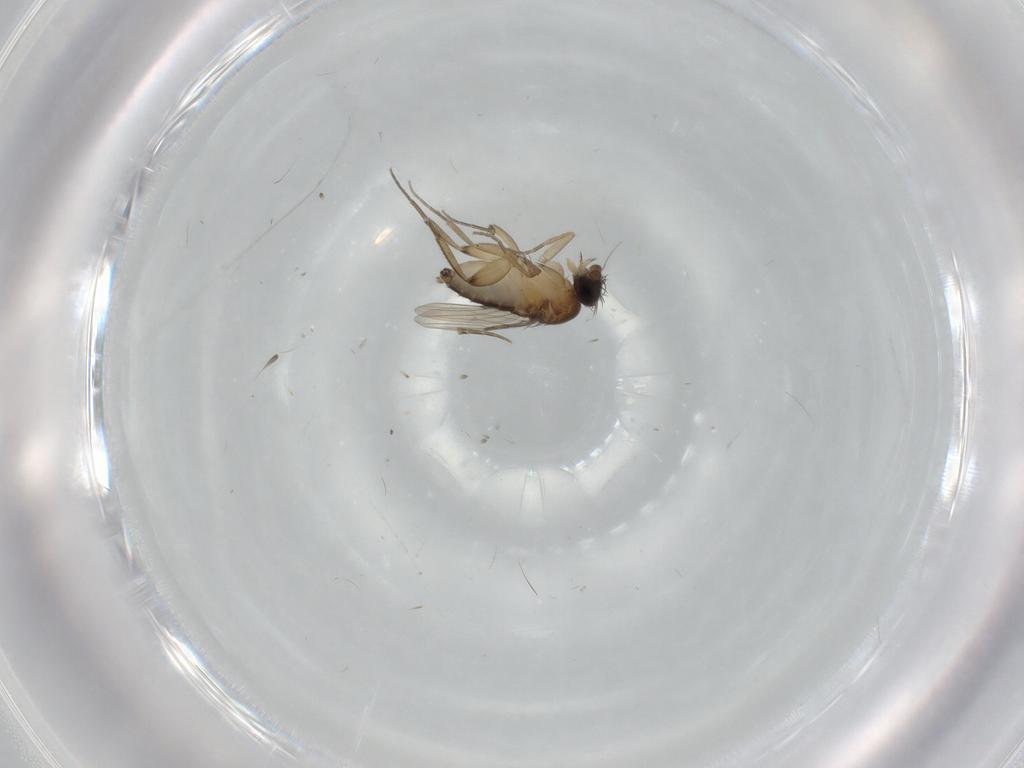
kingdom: Animalia
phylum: Arthropoda
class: Insecta
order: Diptera
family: Phoridae
